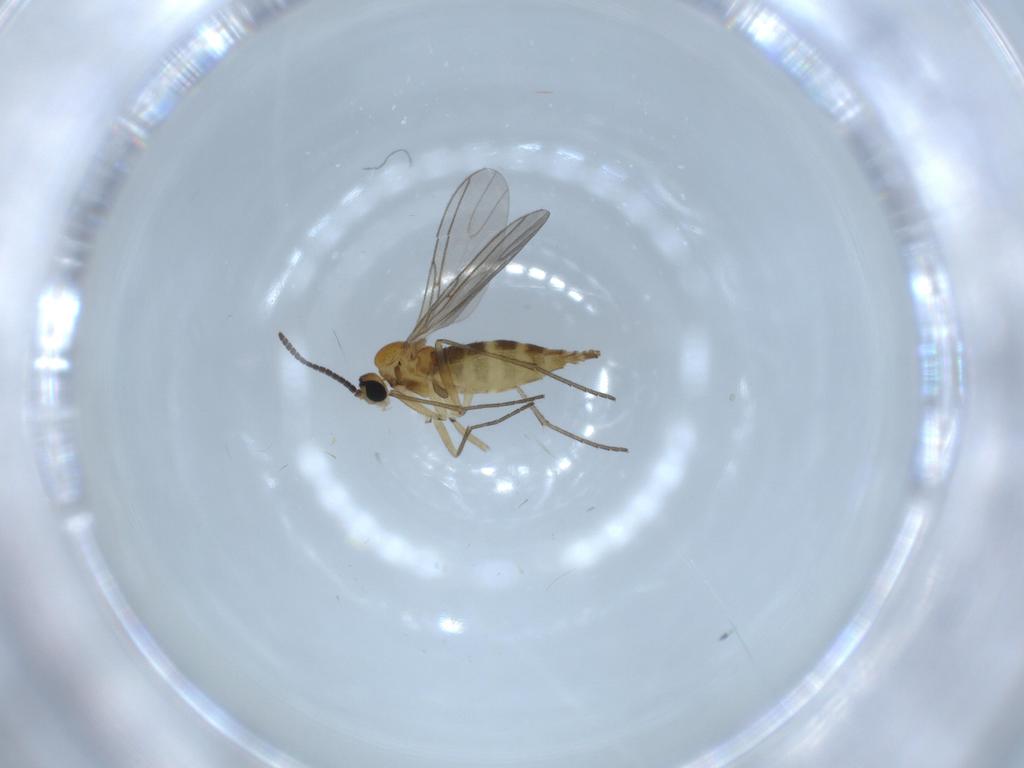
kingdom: Animalia
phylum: Arthropoda
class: Insecta
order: Diptera
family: Sciaridae
